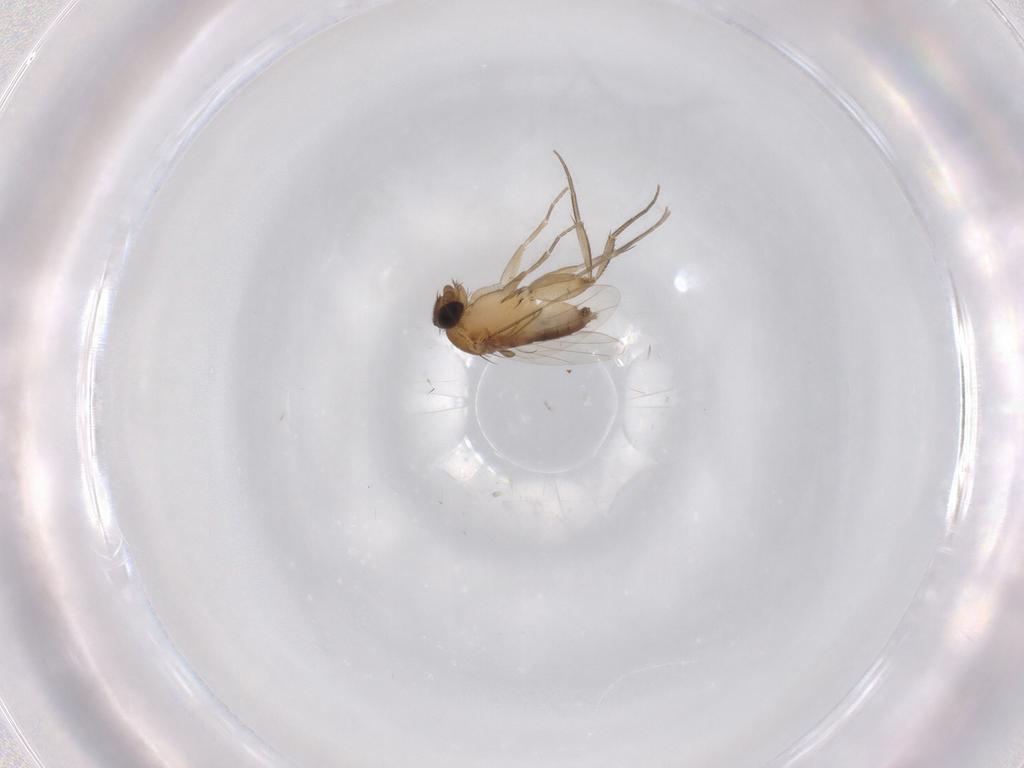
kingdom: Animalia
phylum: Arthropoda
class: Insecta
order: Diptera
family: Phoridae
